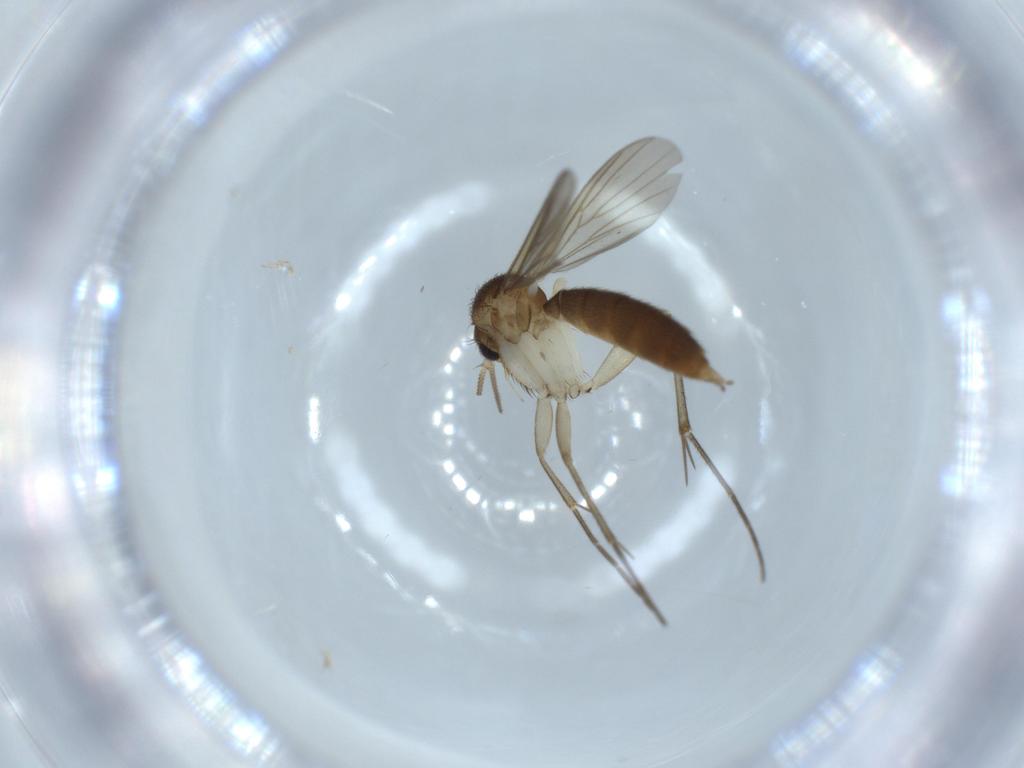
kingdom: Animalia
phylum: Arthropoda
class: Insecta
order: Diptera
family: Mycetophilidae
